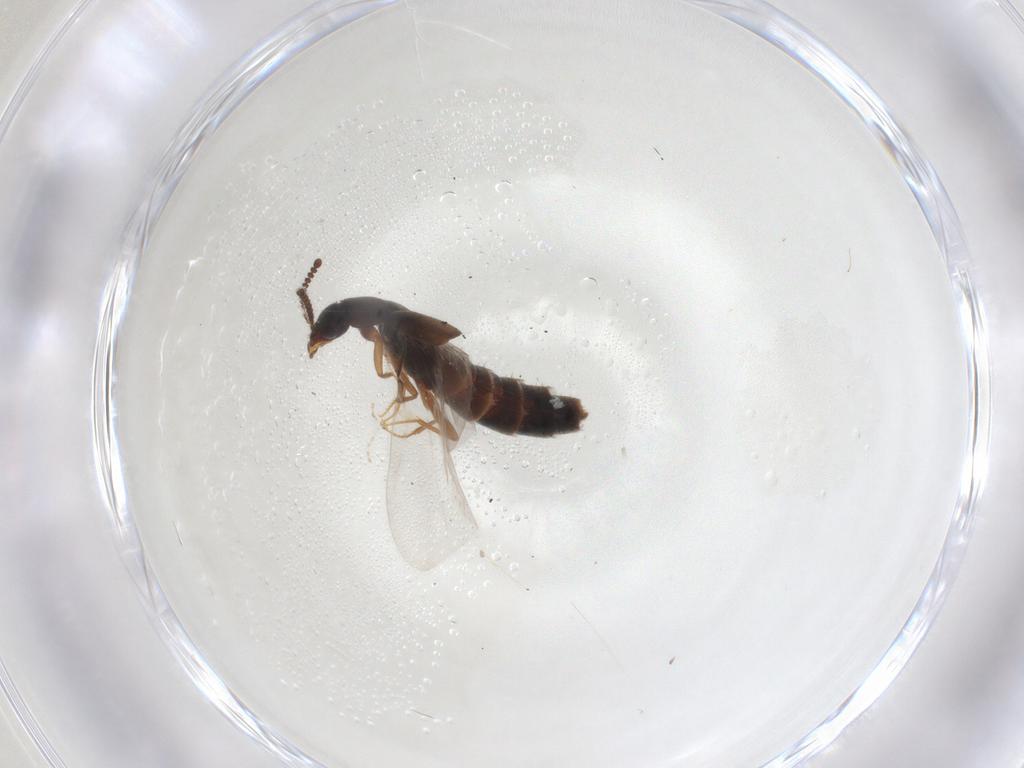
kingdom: Animalia
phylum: Arthropoda
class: Insecta
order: Coleoptera
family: Staphylinidae
